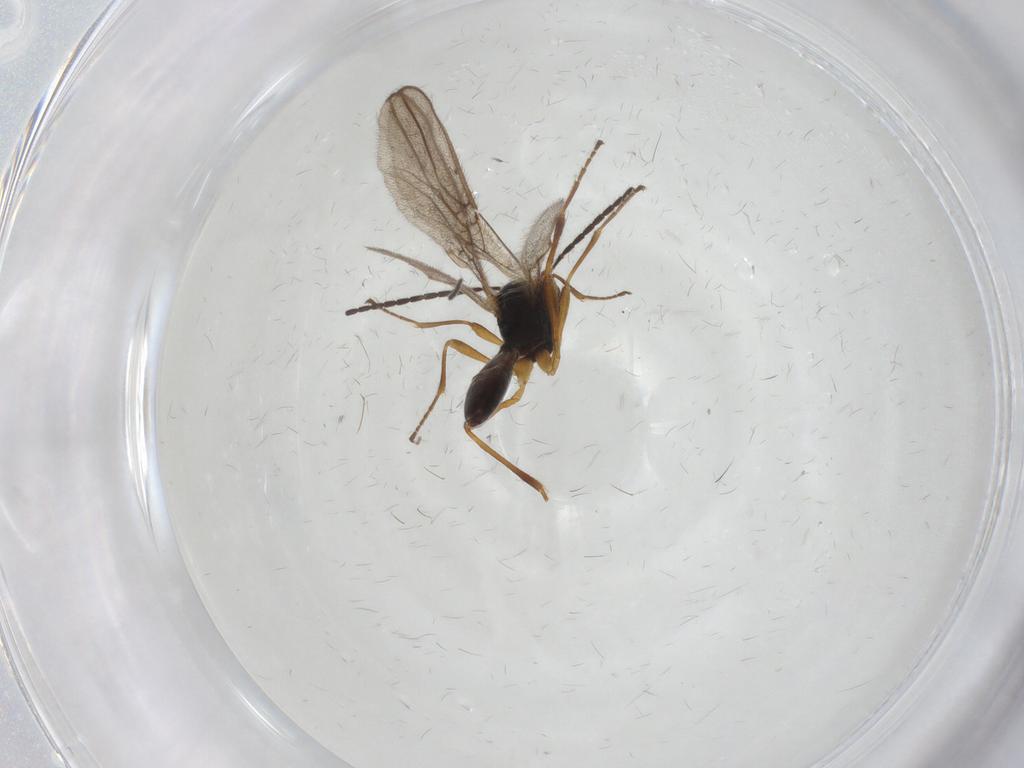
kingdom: Animalia
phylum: Arthropoda
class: Insecta
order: Hymenoptera
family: Braconidae
